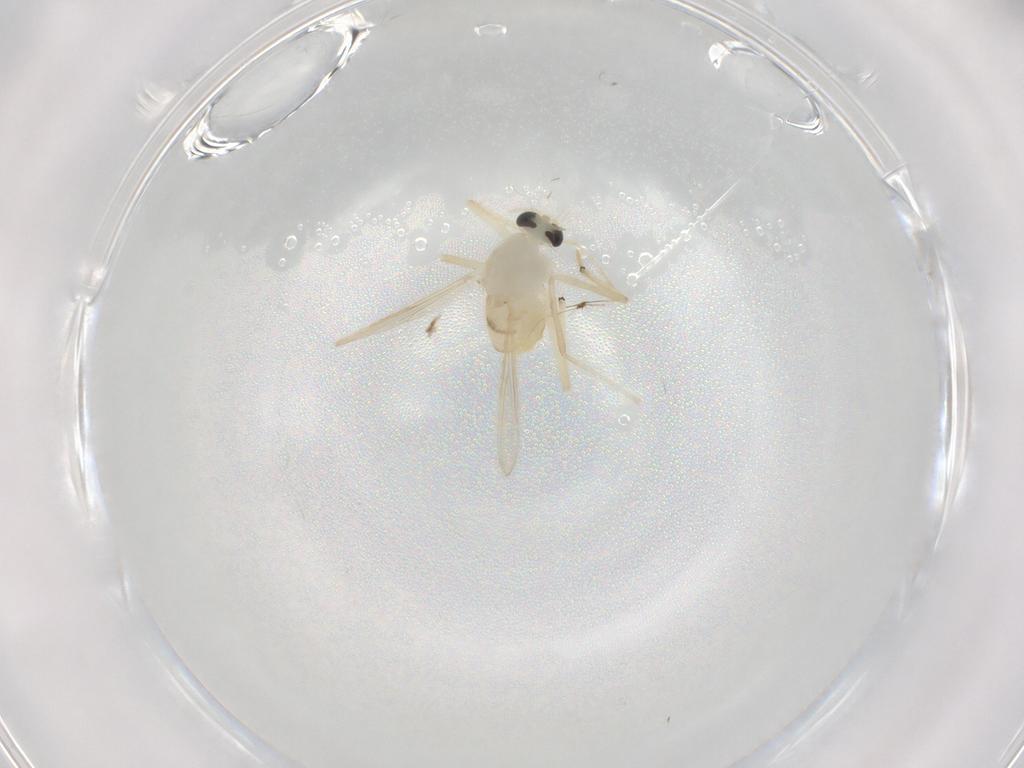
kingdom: Animalia
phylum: Arthropoda
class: Insecta
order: Diptera
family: Chironomidae
